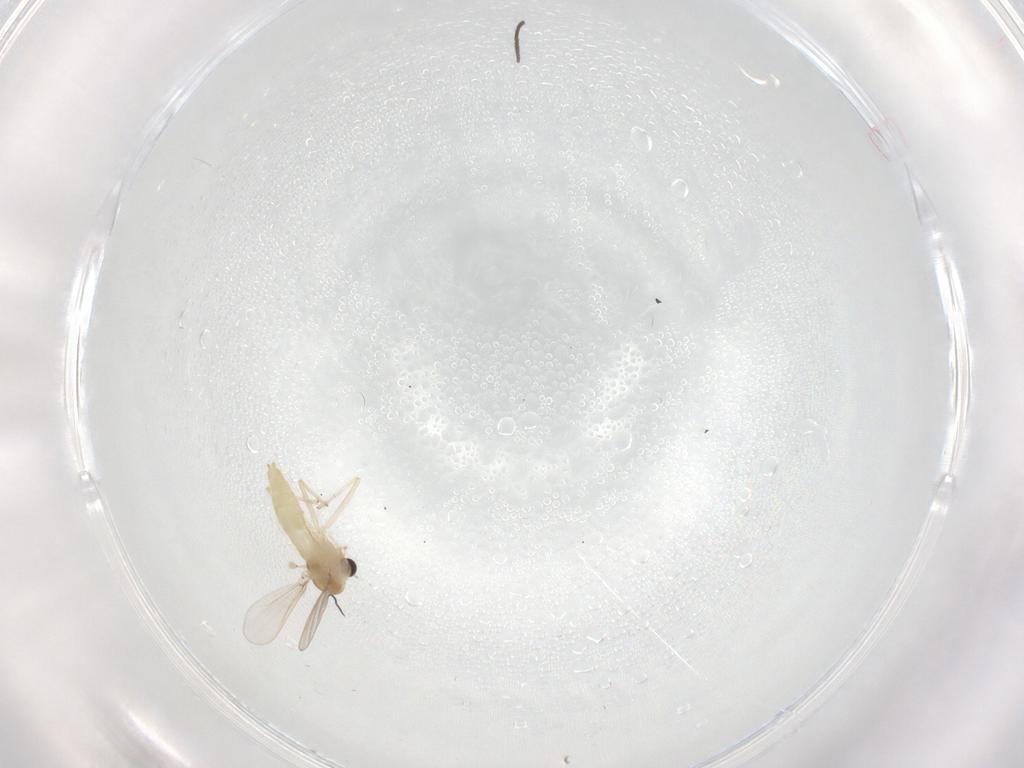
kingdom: Animalia
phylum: Arthropoda
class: Insecta
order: Diptera
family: Chironomidae
